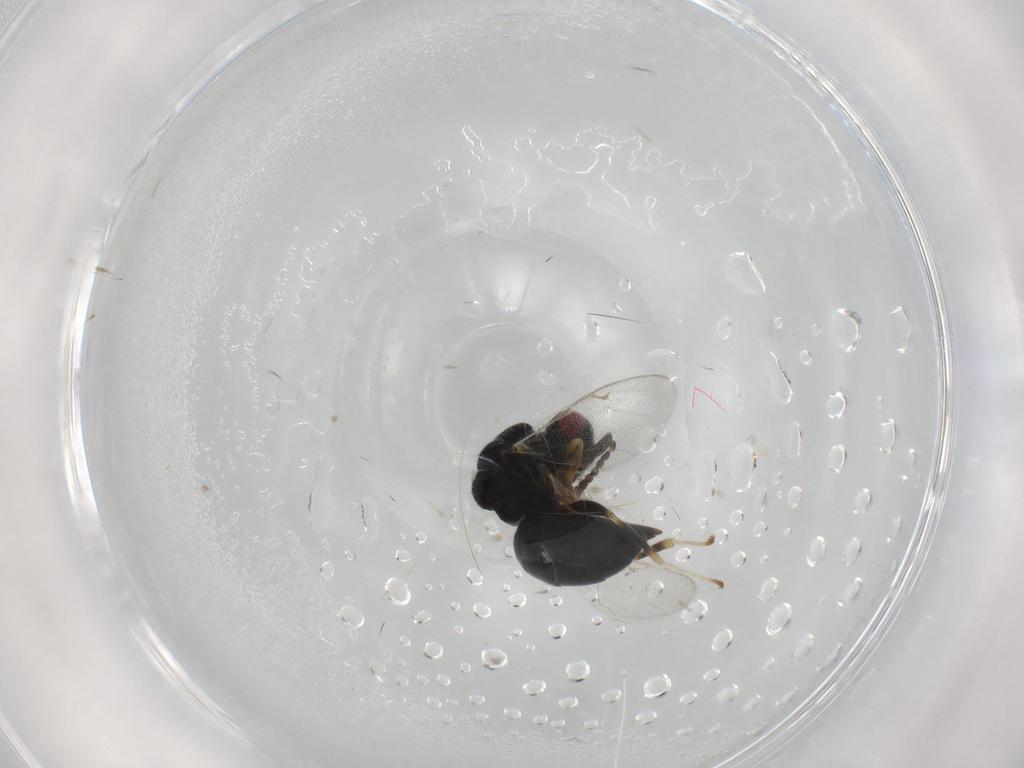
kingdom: Animalia
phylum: Arthropoda
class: Insecta
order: Hymenoptera
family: Eurytomidae
